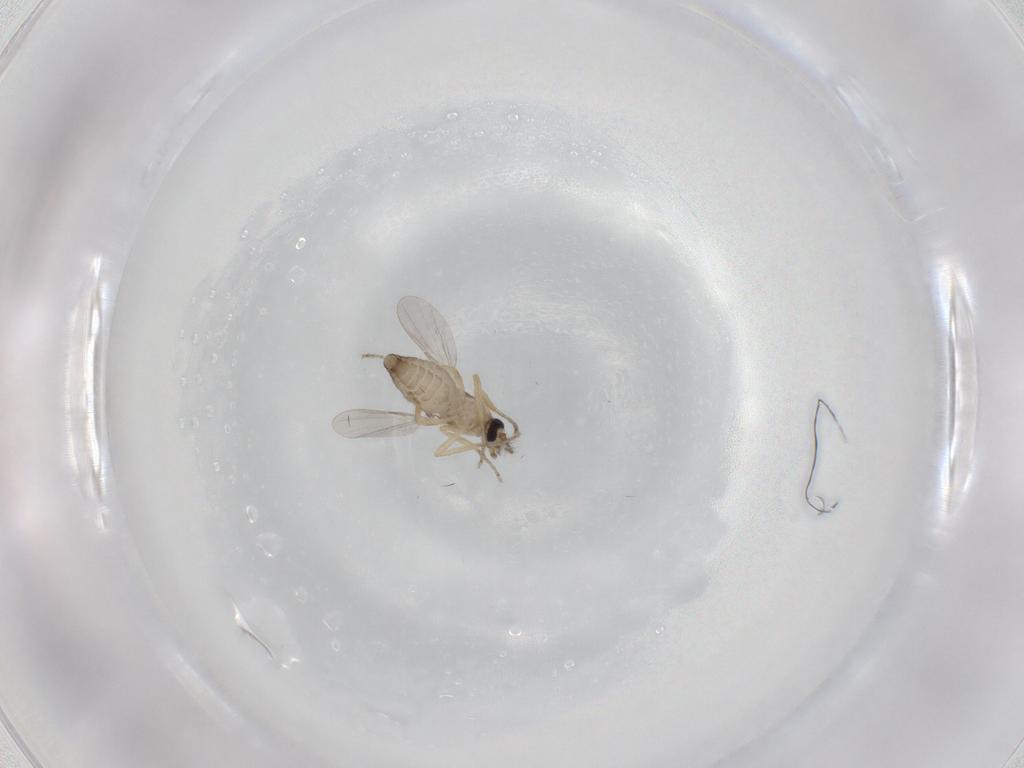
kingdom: Animalia
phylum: Arthropoda
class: Insecta
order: Diptera
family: Ceratopogonidae
